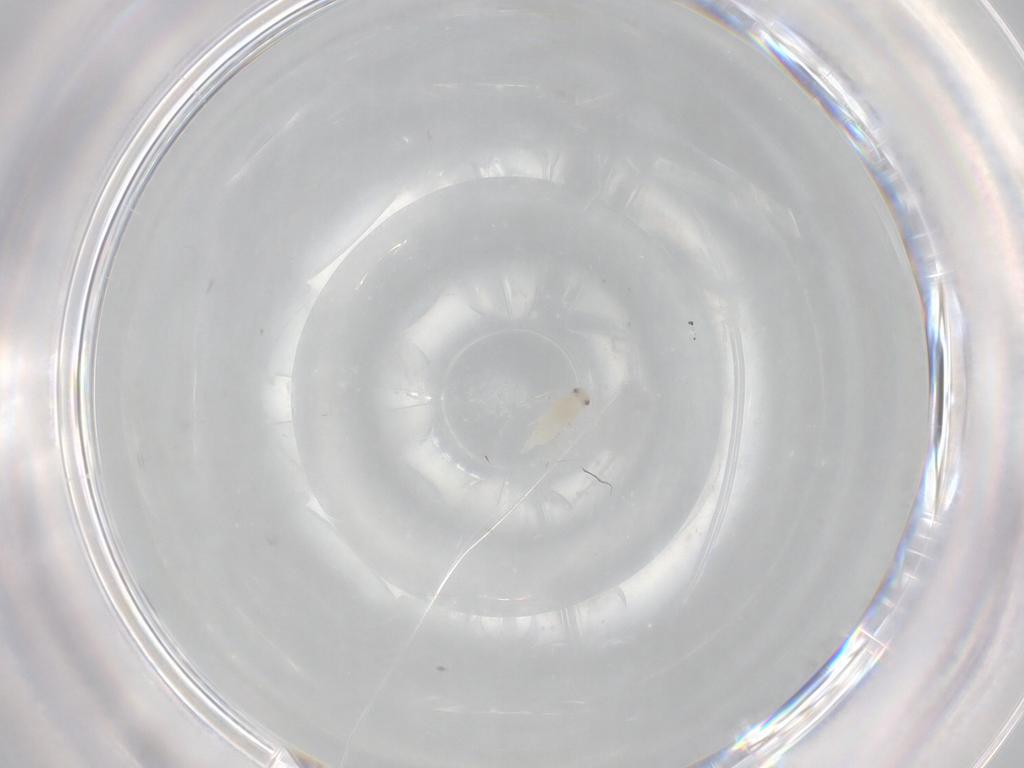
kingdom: Animalia
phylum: Arthropoda
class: Insecta
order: Hemiptera
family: Aleyrodidae
